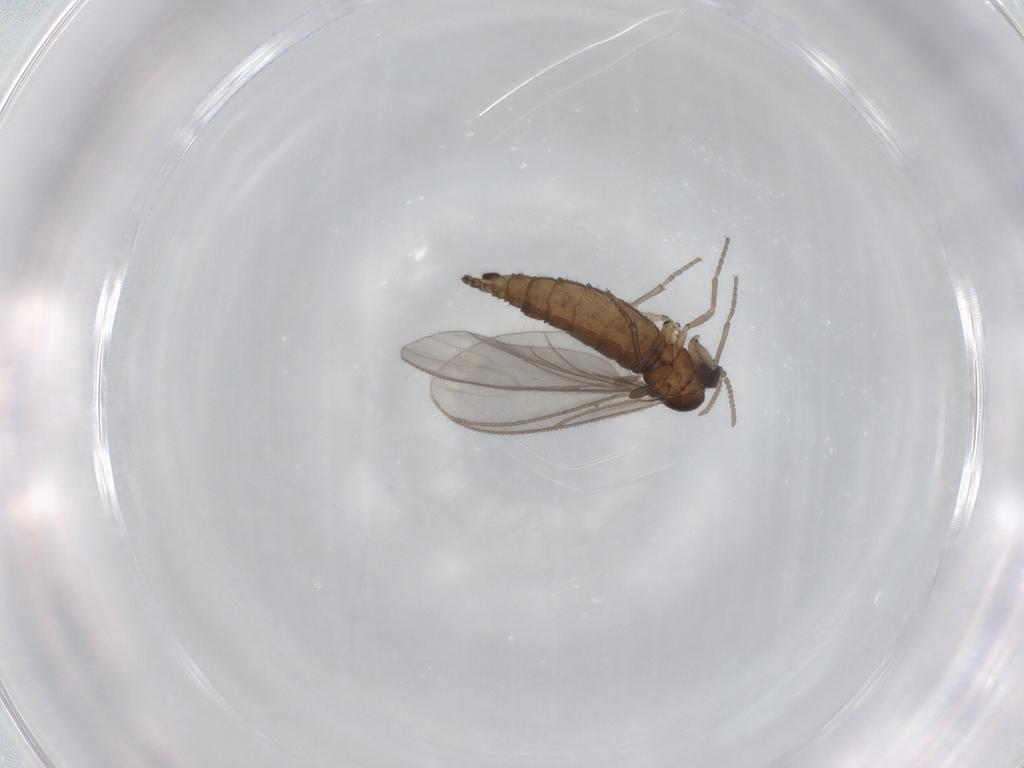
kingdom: Animalia
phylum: Arthropoda
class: Insecta
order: Diptera
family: Sciaridae
